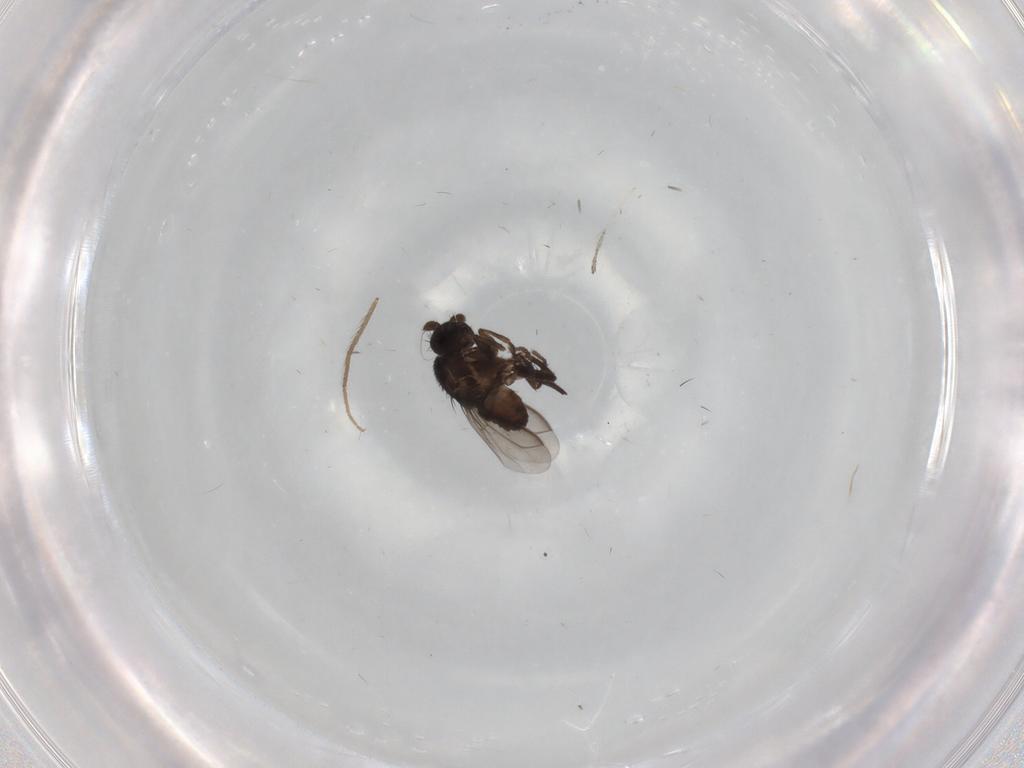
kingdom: Animalia
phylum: Arthropoda
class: Insecta
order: Diptera
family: Chironomidae
